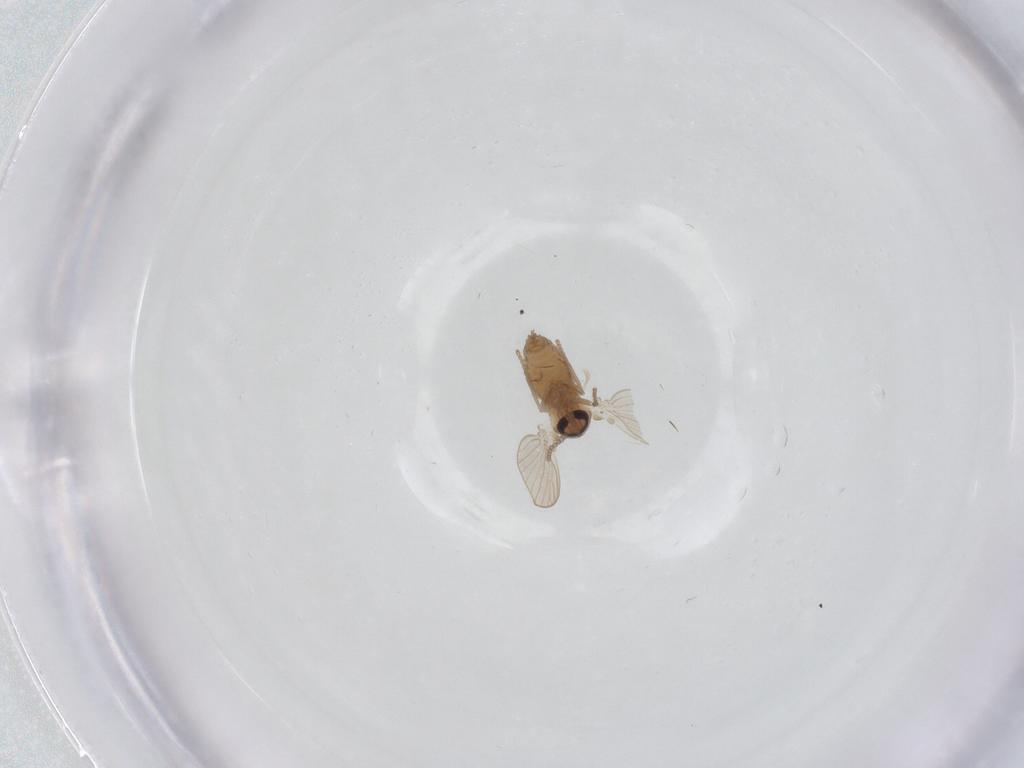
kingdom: Animalia
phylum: Arthropoda
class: Insecta
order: Diptera
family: Psychodidae
